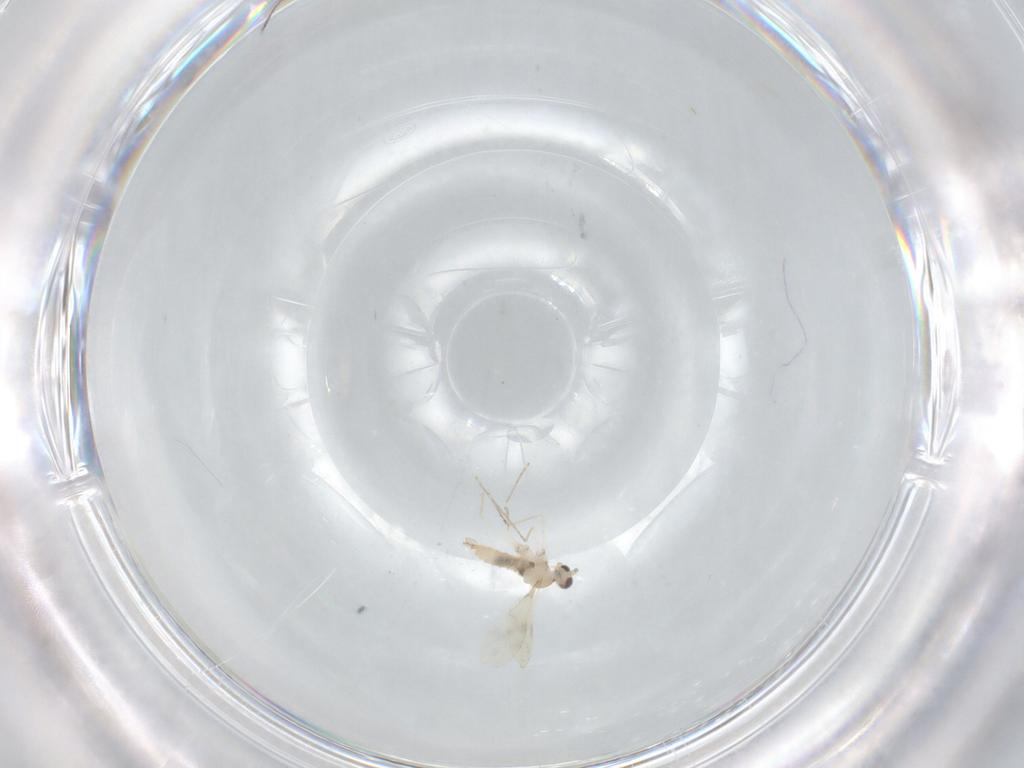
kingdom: Animalia
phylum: Arthropoda
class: Insecta
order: Diptera
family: Cecidomyiidae
